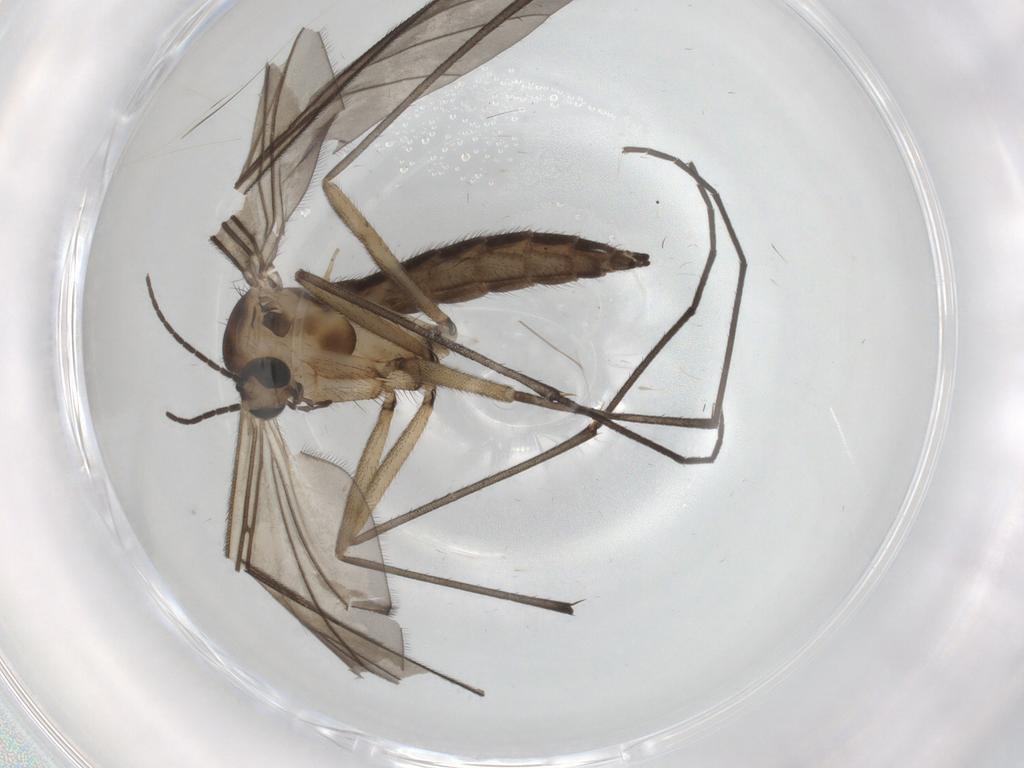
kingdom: Animalia
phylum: Arthropoda
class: Insecta
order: Diptera
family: Sciaridae
